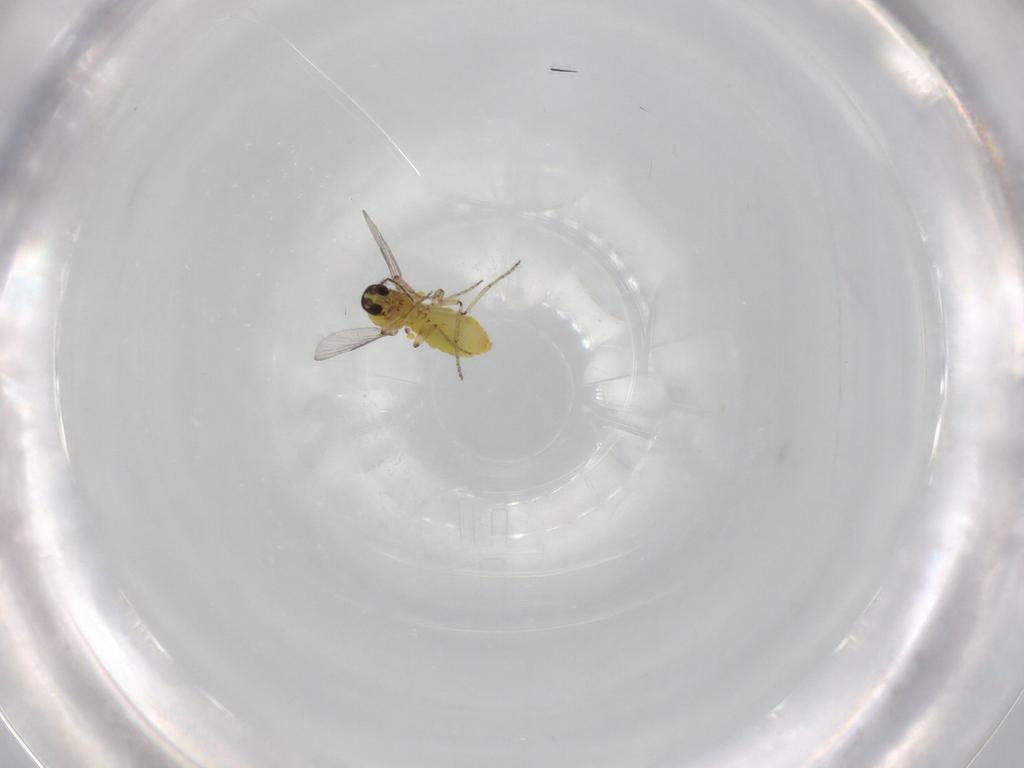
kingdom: Animalia
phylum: Arthropoda
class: Insecta
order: Diptera
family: Ceratopogonidae
